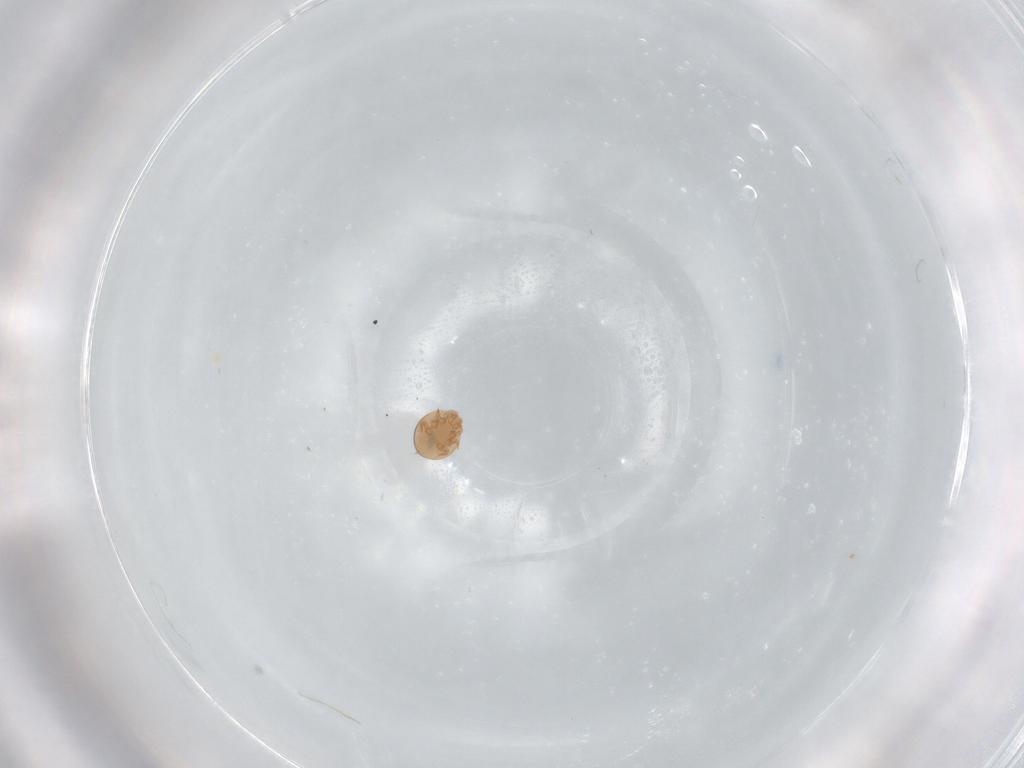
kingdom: Animalia
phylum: Arthropoda
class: Arachnida
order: Mesostigmata
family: Trematuridae
